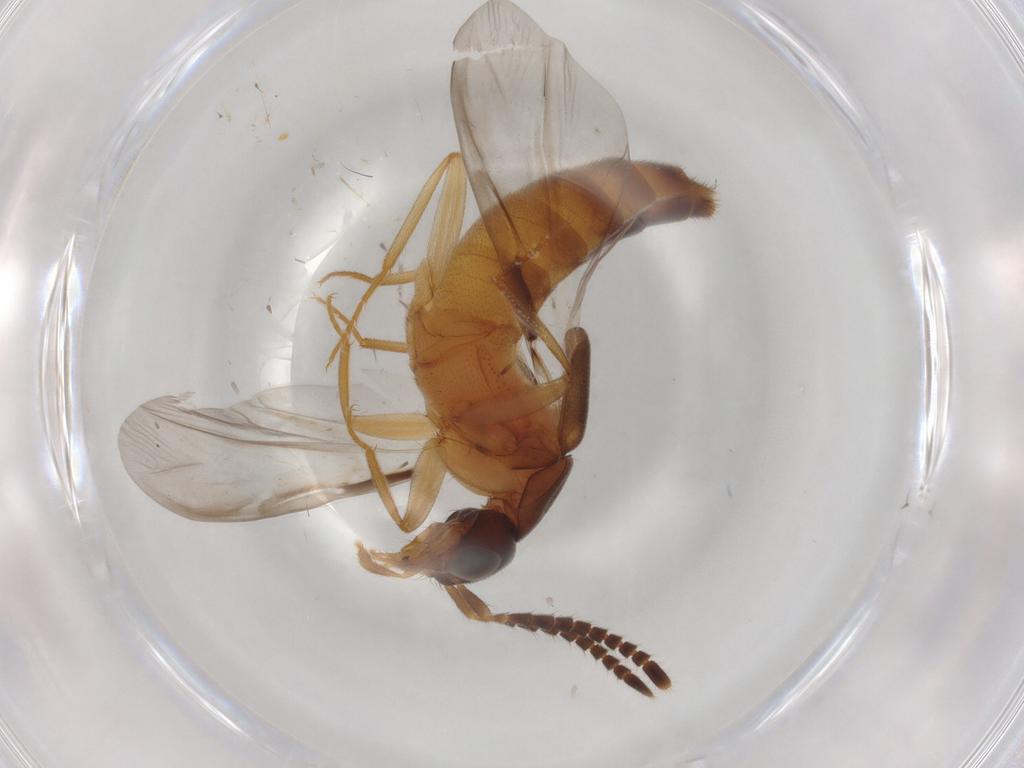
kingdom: Animalia
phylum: Arthropoda
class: Insecta
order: Coleoptera
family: Staphylinidae
